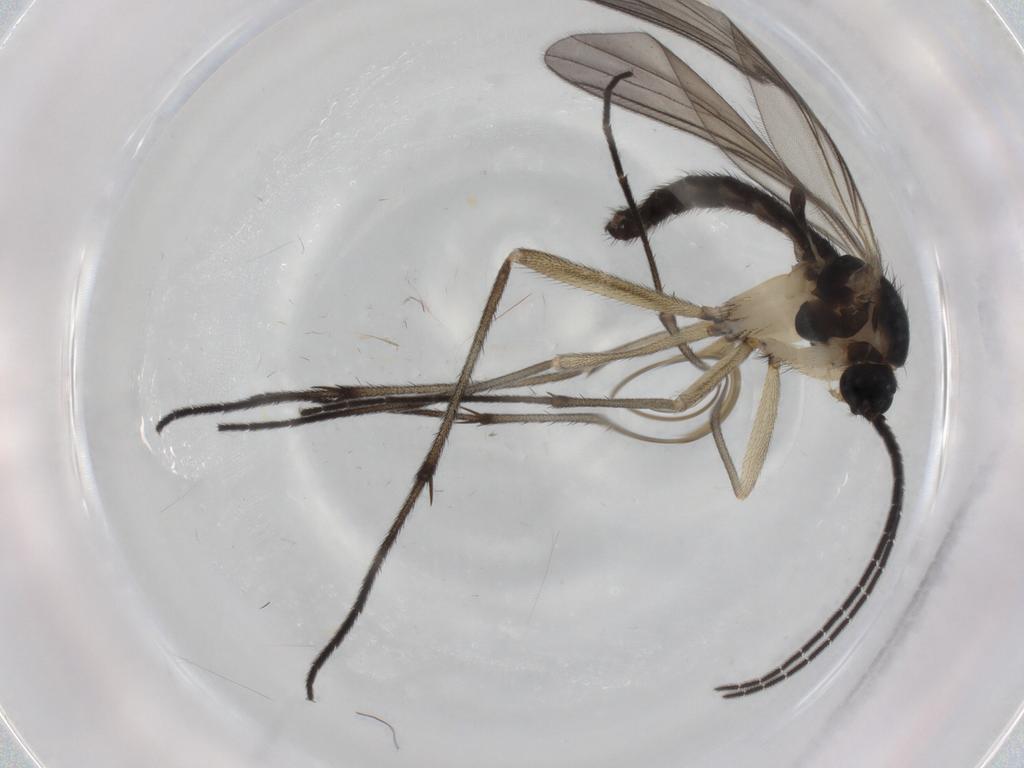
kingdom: Animalia
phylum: Arthropoda
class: Insecta
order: Diptera
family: Sciaridae
